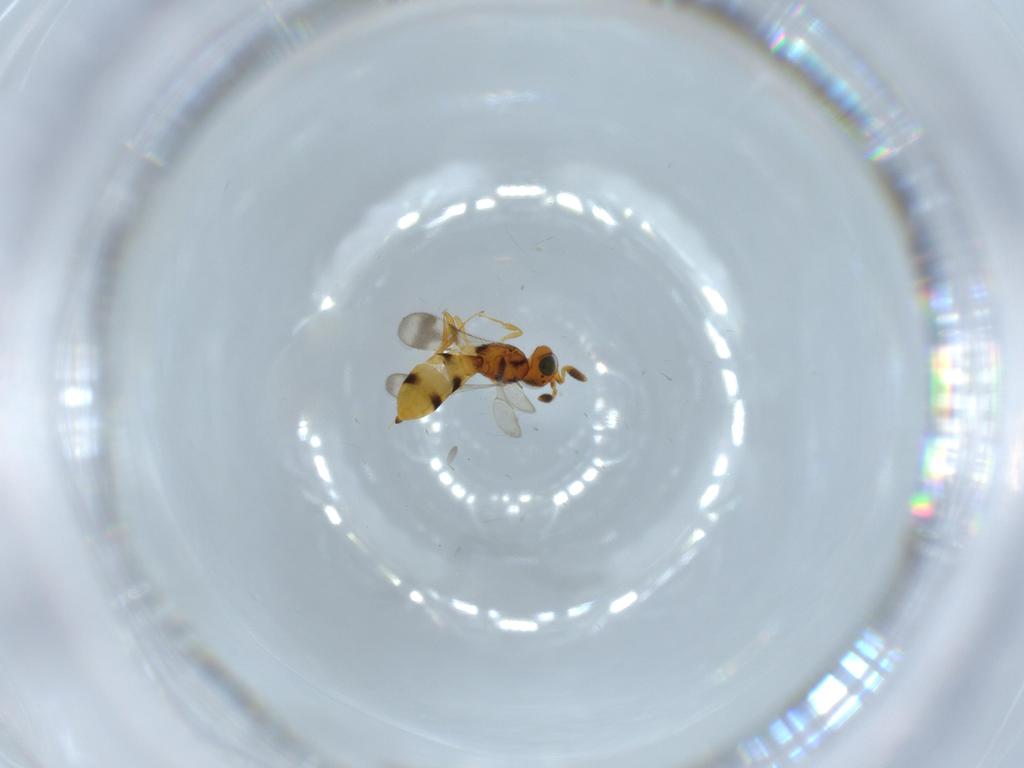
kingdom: Animalia
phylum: Arthropoda
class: Insecta
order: Hymenoptera
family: Scelionidae
